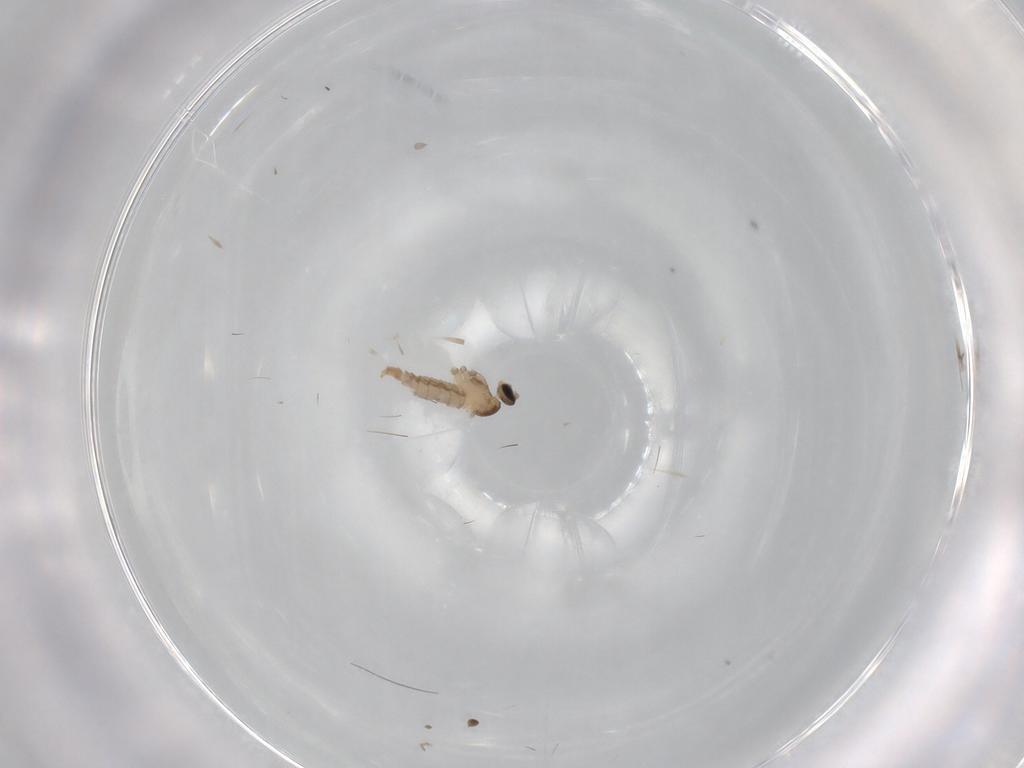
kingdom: Animalia
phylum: Arthropoda
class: Insecta
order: Diptera
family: Cecidomyiidae
